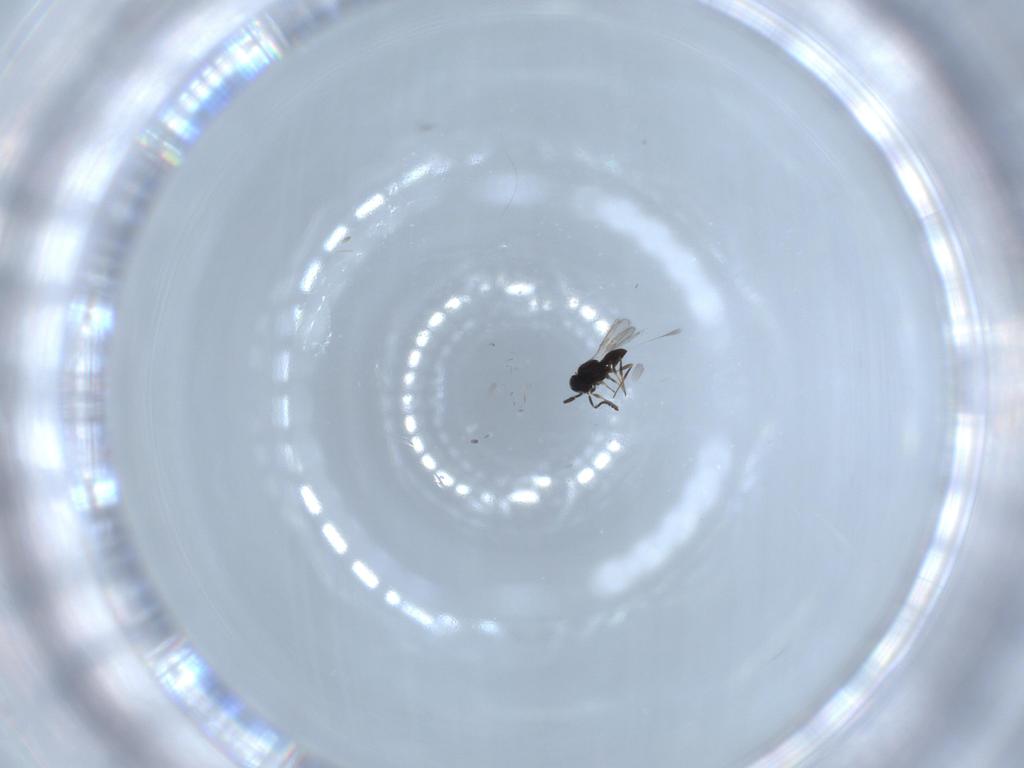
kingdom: Animalia
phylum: Arthropoda
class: Insecta
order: Hymenoptera
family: Scelionidae
